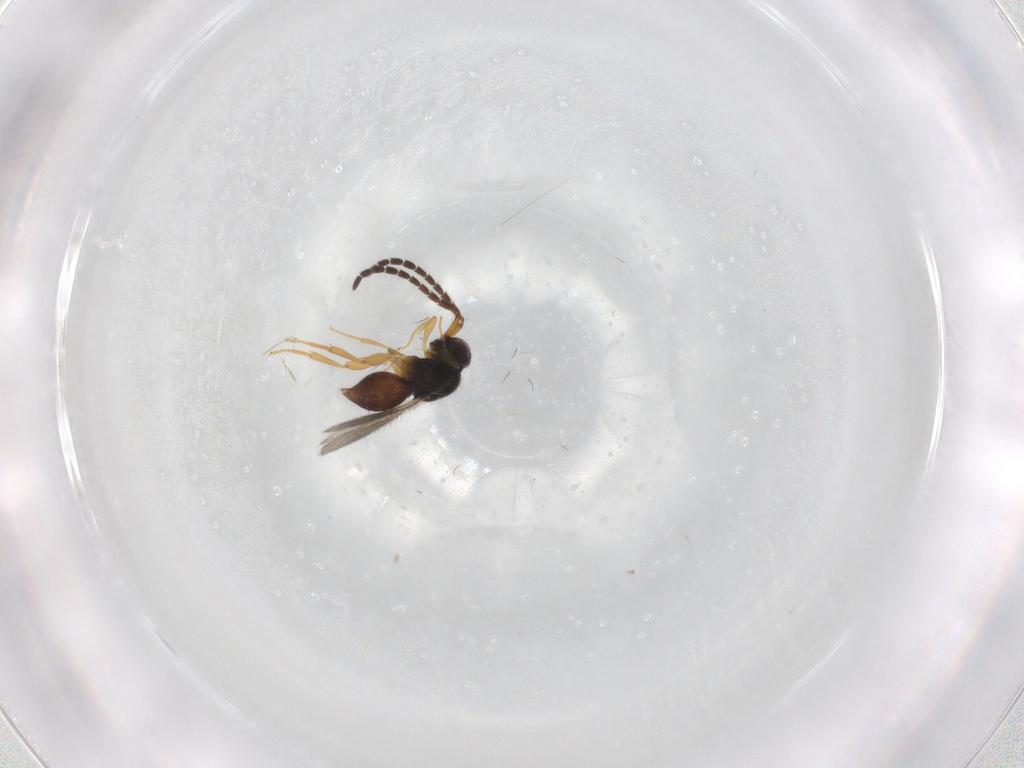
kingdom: Animalia
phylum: Arthropoda
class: Insecta
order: Hymenoptera
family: Ceraphronidae
